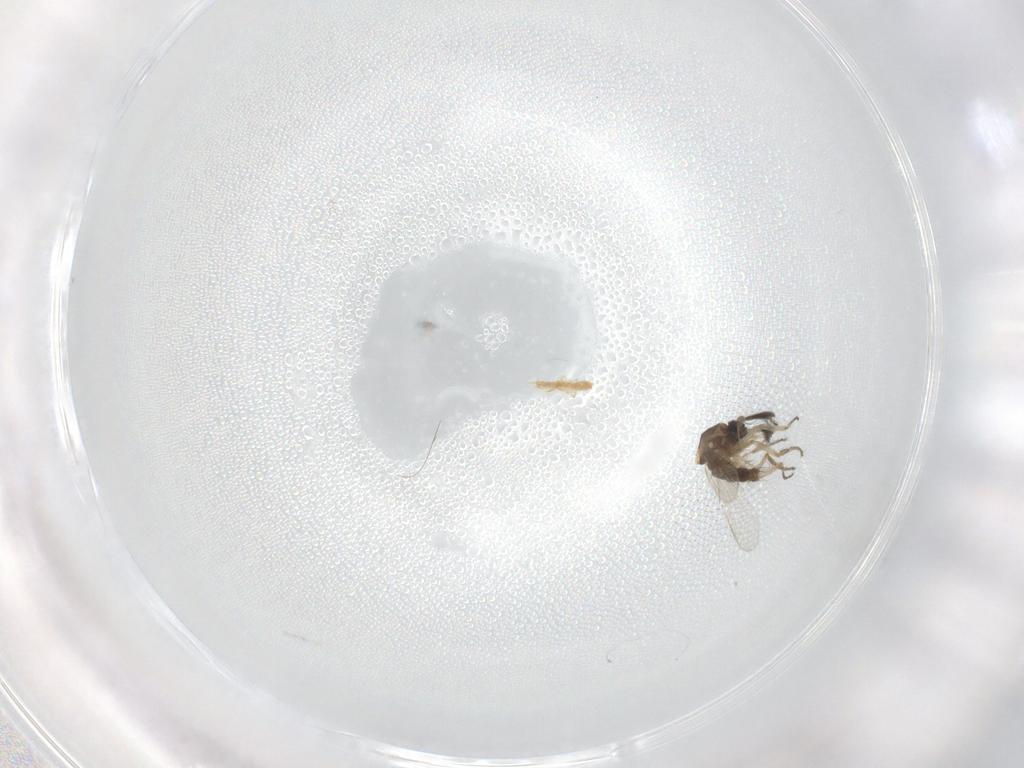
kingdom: Animalia
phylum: Arthropoda
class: Insecta
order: Diptera
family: Ceratopogonidae
